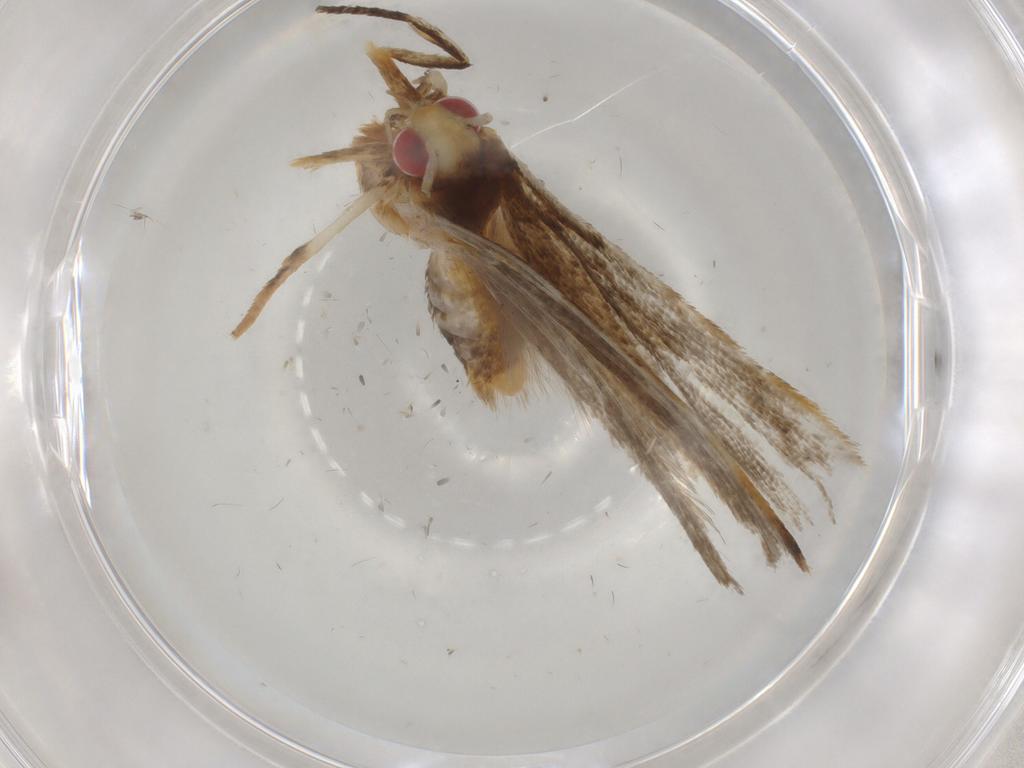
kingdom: Animalia
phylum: Arthropoda
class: Insecta
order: Lepidoptera
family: Oecophoridae
